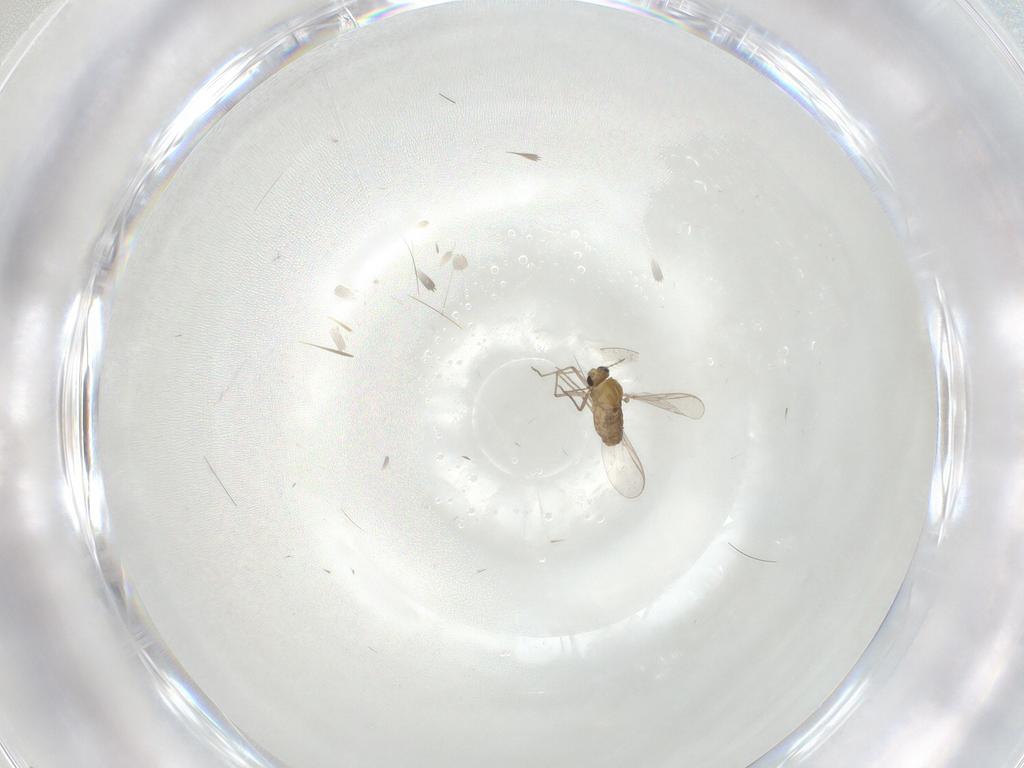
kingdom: Animalia
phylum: Arthropoda
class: Insecta
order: Diptera
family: Chironomidae
